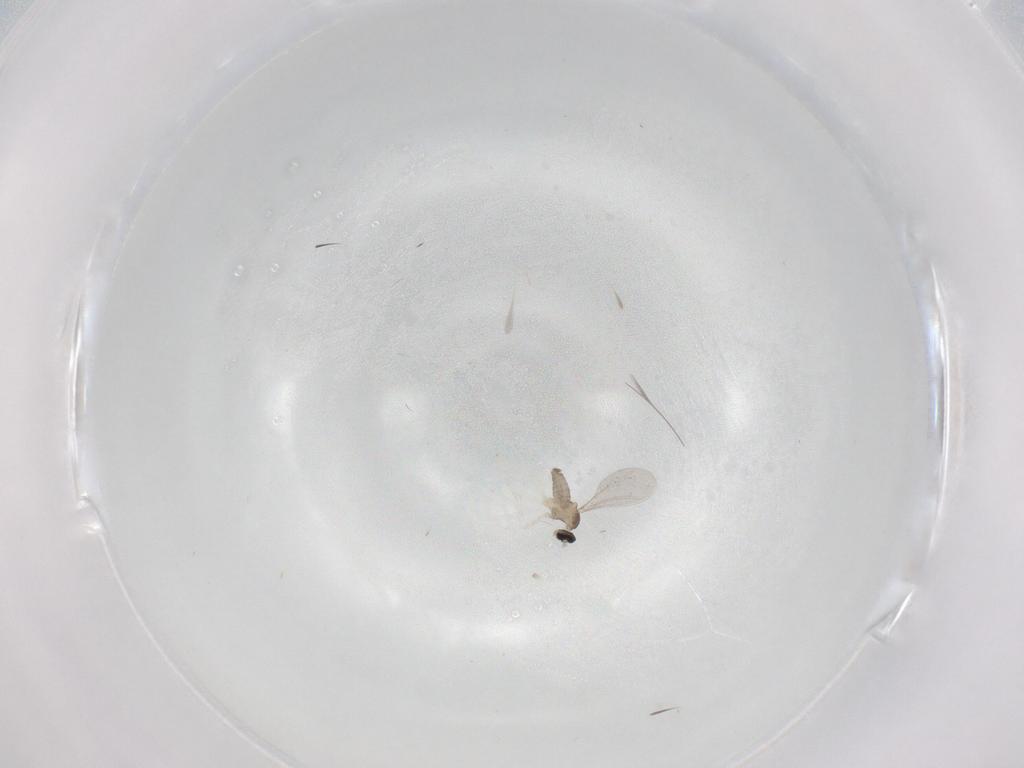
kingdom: Animalia
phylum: Arthropoda
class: Insecta
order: Diptera
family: Cecidomyiidae
